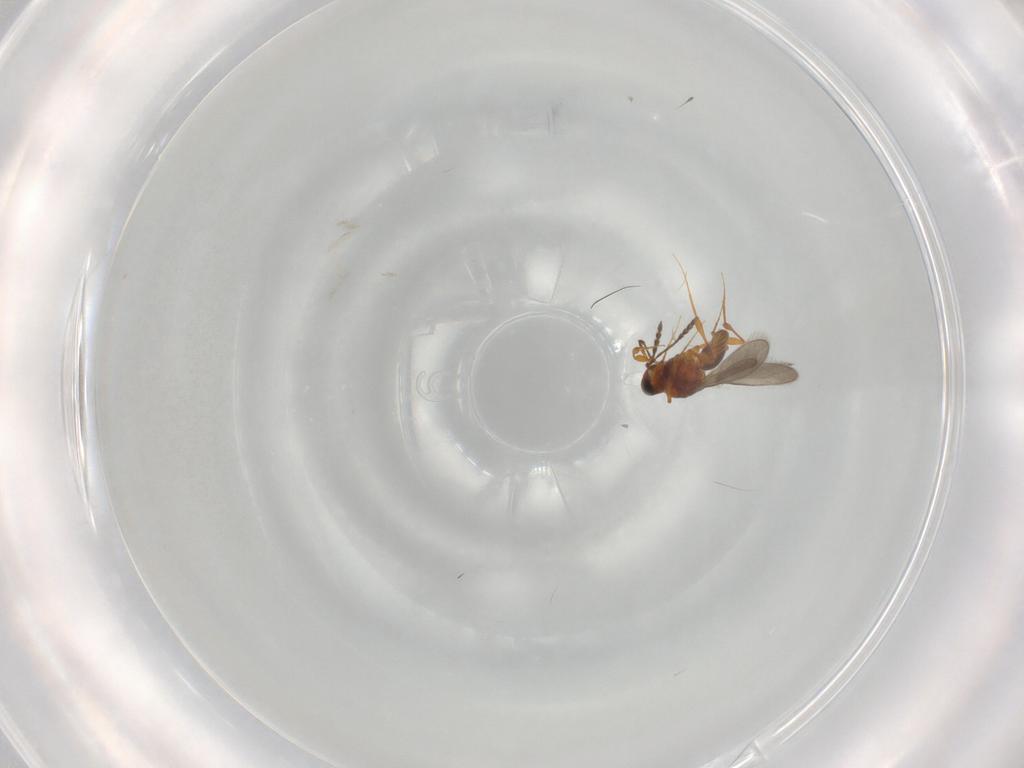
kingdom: Animalia
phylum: Arthropoda
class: Insecta
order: Hymenoptera
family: Platygastridae
